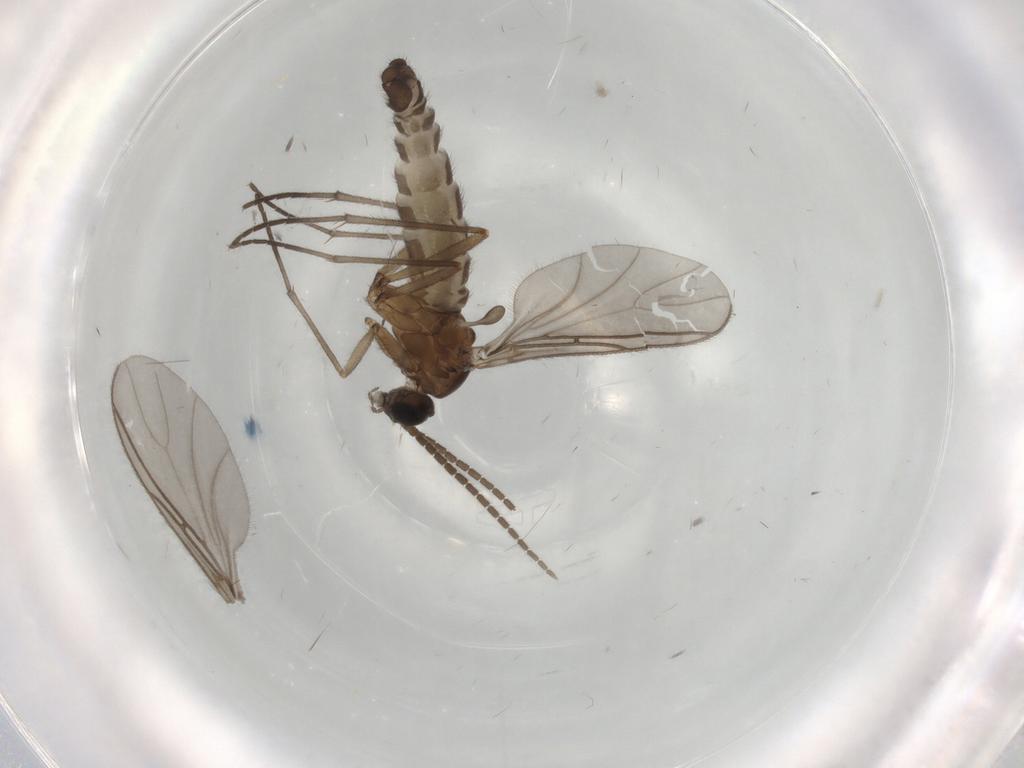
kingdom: Animalia
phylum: Arthropoda
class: Insecta
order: Diptera
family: Sciaridae
